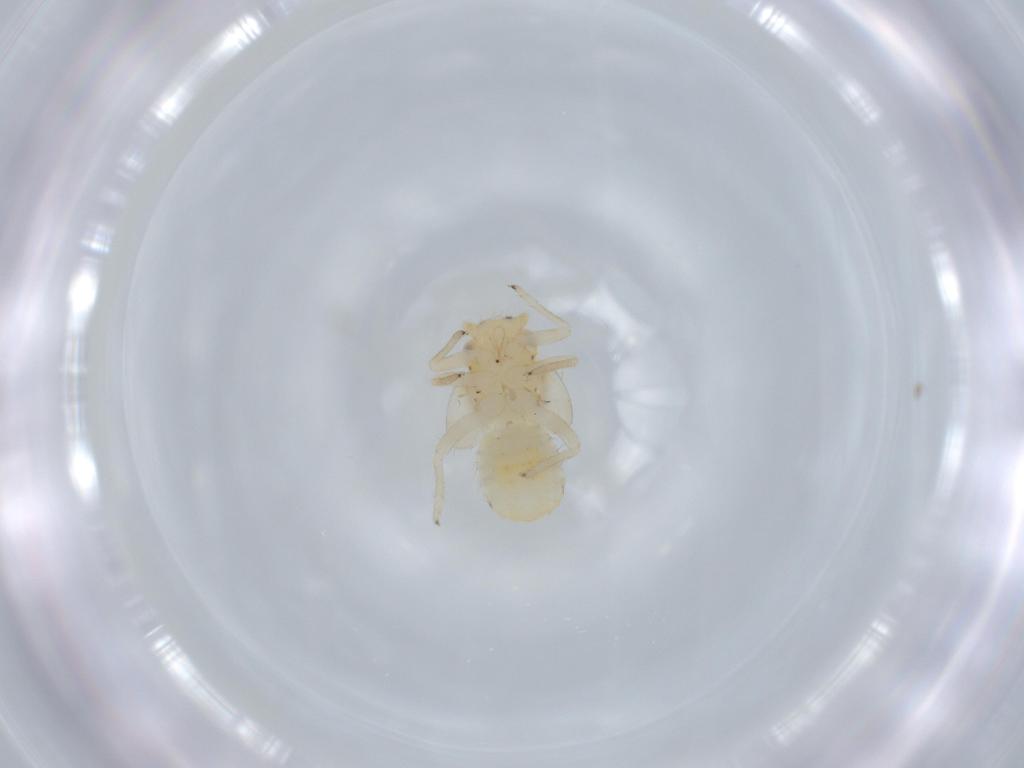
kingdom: Animalia
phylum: Arthropoda
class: Insecta
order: Hemiptera
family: Psyllidae
